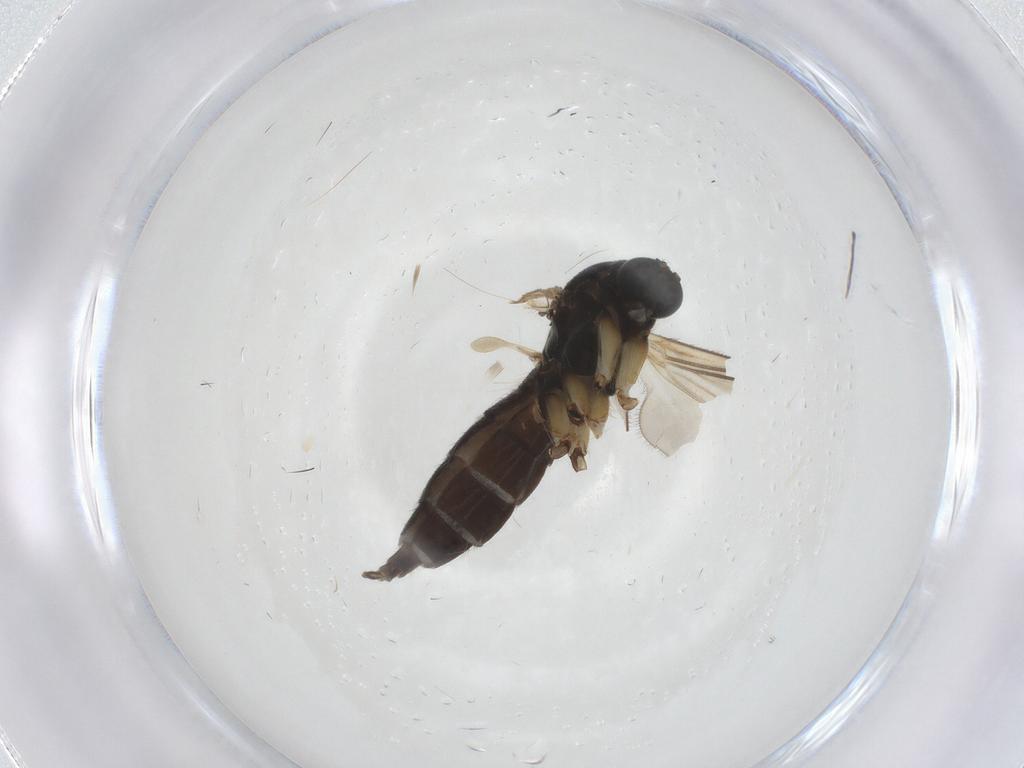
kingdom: Animalia
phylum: Arthropoda
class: Insecta
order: Diptera
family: Sciaridae
